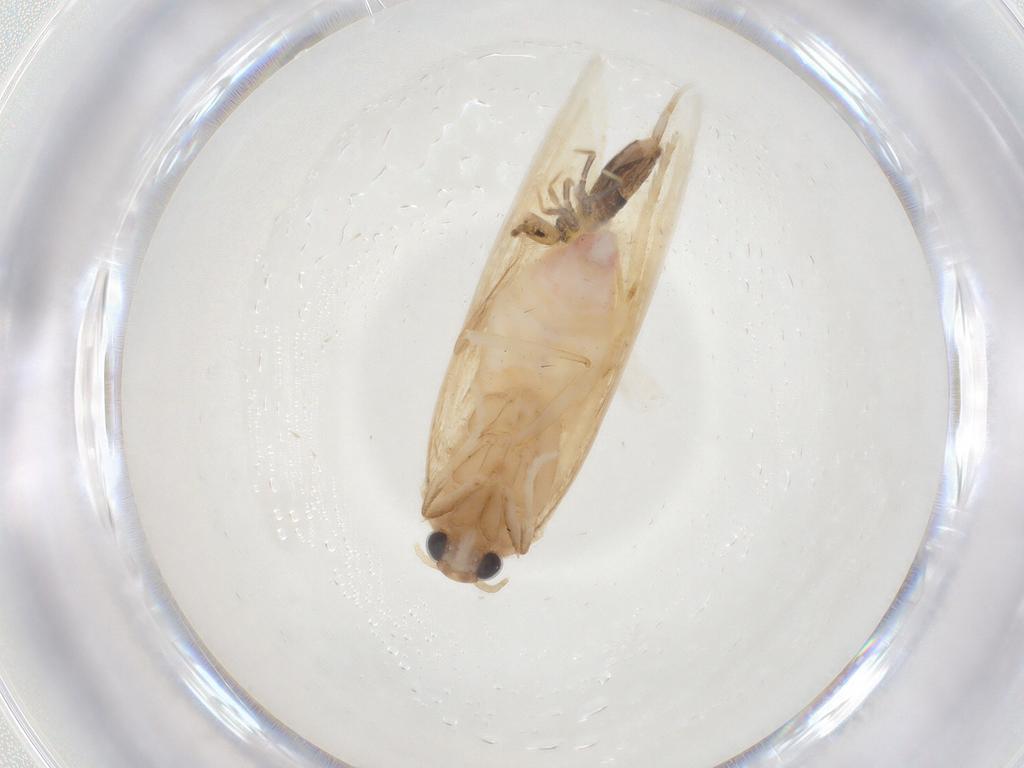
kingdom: Animalia
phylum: Arthropoda
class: Collembola
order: Entomobryomorpha
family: Entomobryidae
